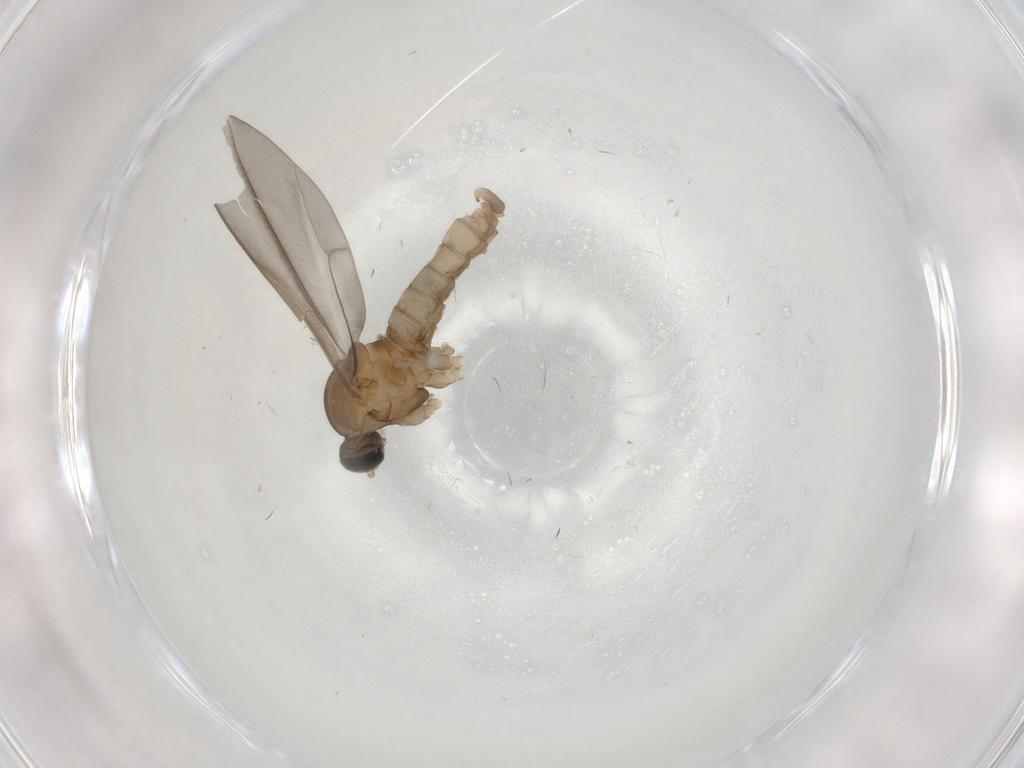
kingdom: Animalia
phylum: Arthropoda
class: Insecta
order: Diptera
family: Cecidomyiidae
